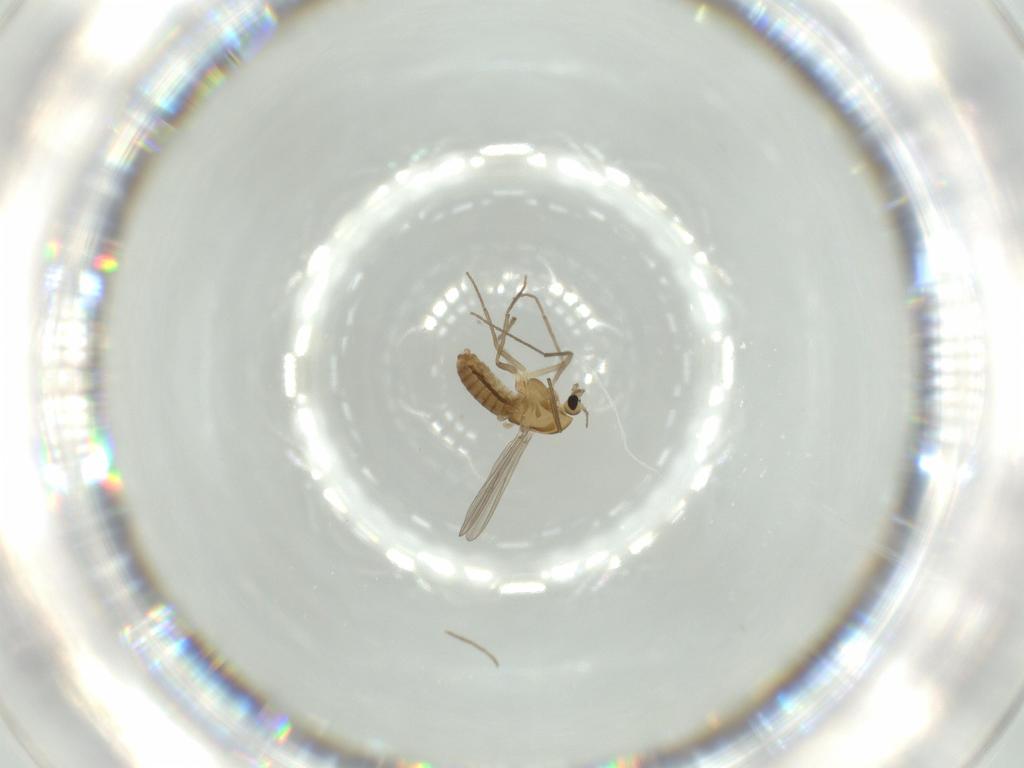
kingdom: Animalia
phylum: Arthropoda
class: Insecta
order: Diptera
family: Chironomidae
